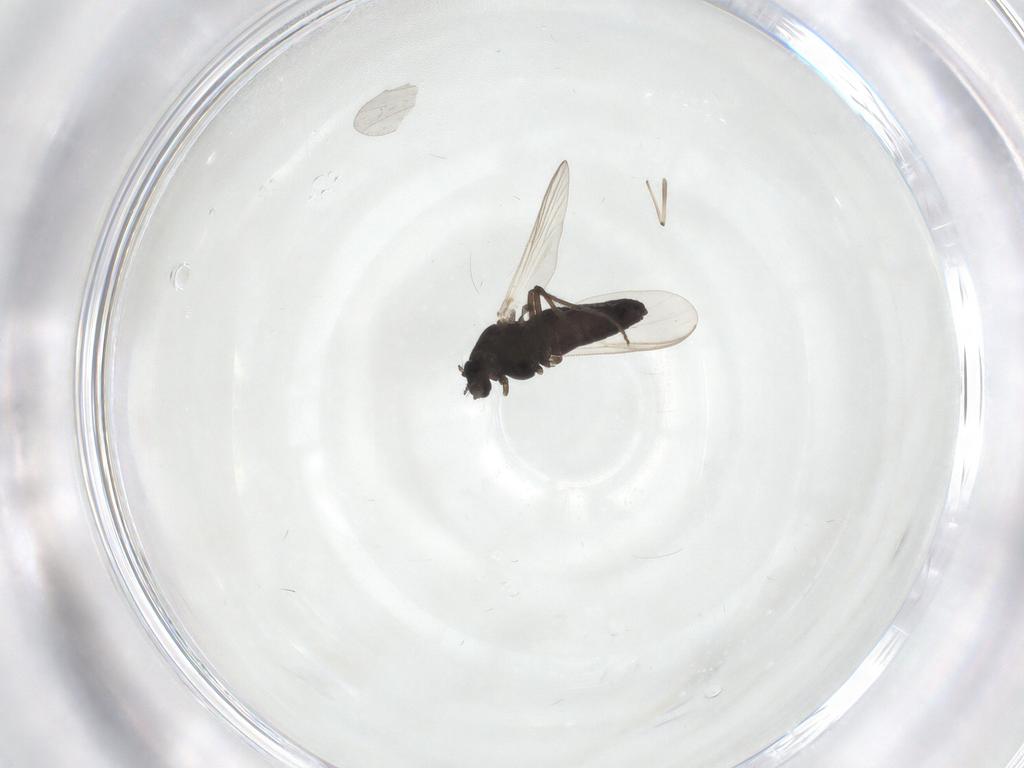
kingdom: Animalia
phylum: Arthropoda
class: Insecta
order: Diptera
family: Chironomidae
